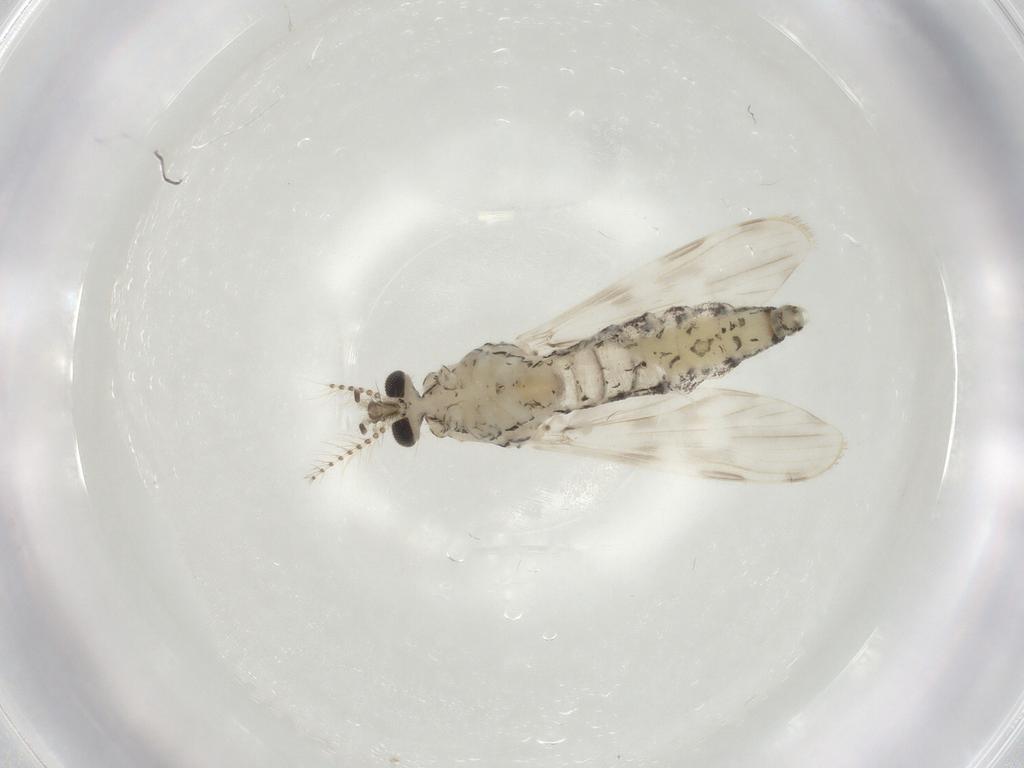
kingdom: Animalia
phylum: Arthropoda
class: Insecta
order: Diptera
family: Chaoboridae
